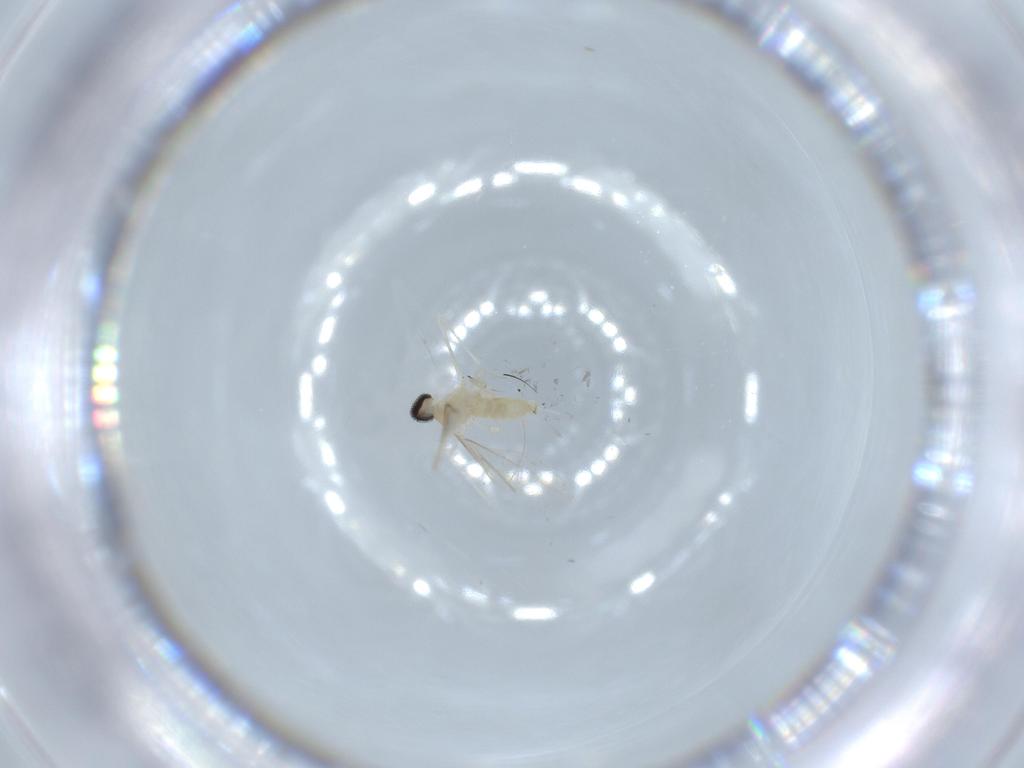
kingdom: Animalia
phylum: Arthropoda
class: Insecta
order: Diptera
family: Cecidomyiidae
